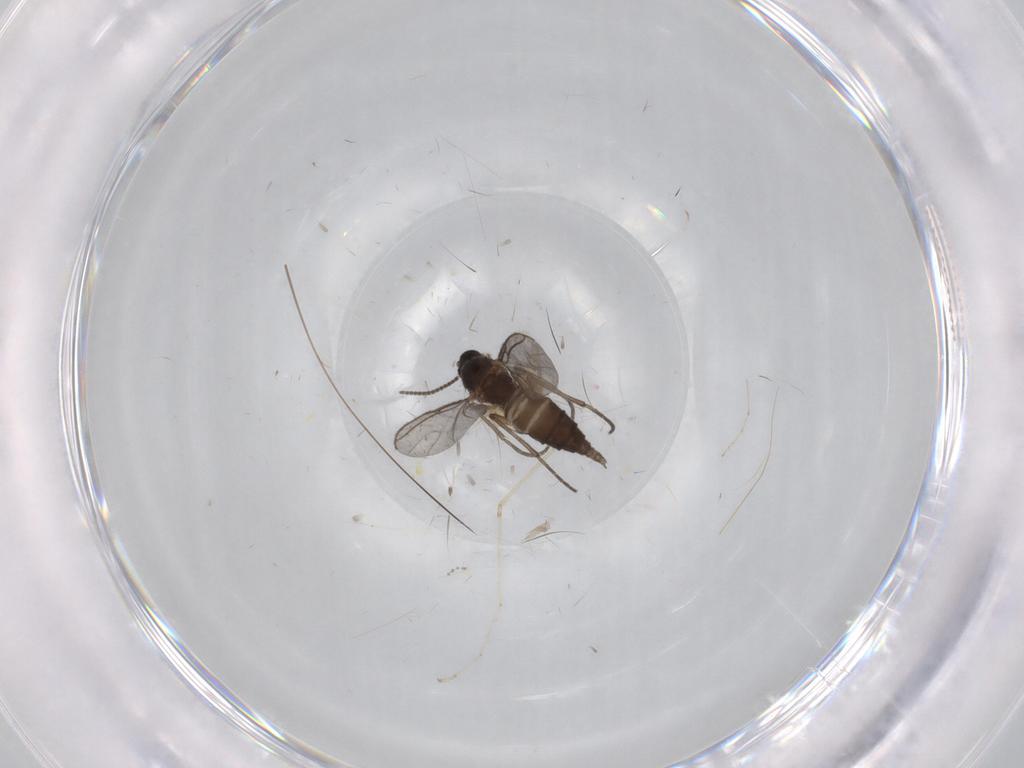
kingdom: Animalia
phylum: Arthropoda
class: Insecta
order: Diptera
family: Cecidomyiidae
